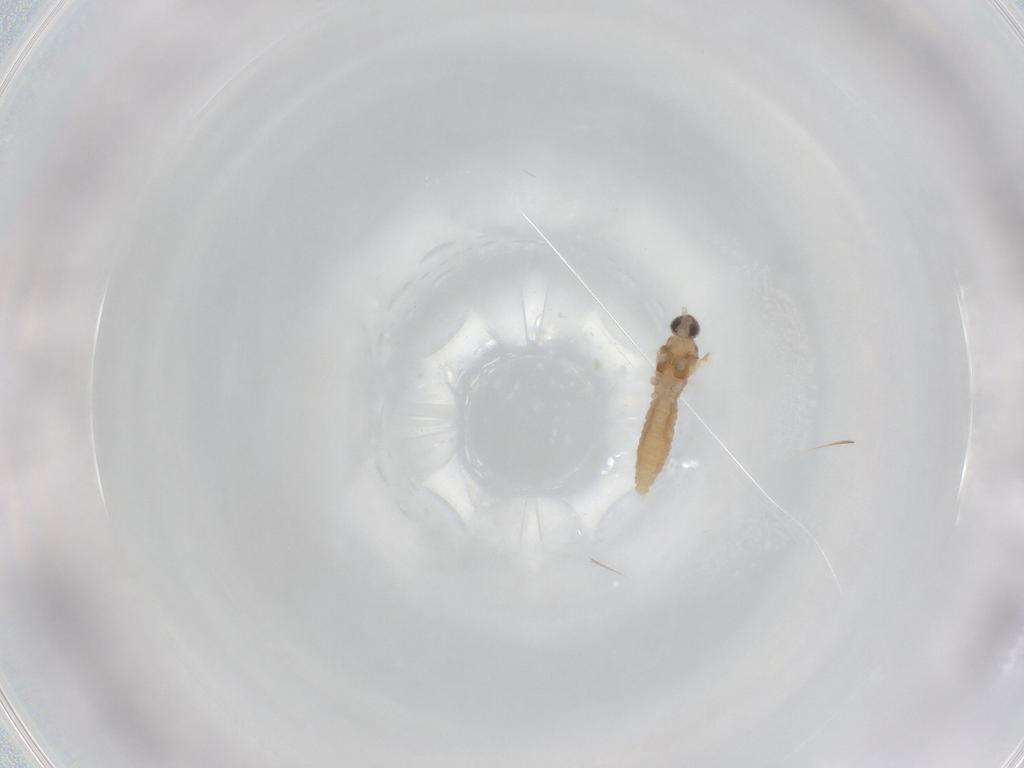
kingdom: Animalia
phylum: Arthropoda
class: Insecta
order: Diptera
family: Cecidomyiidae
